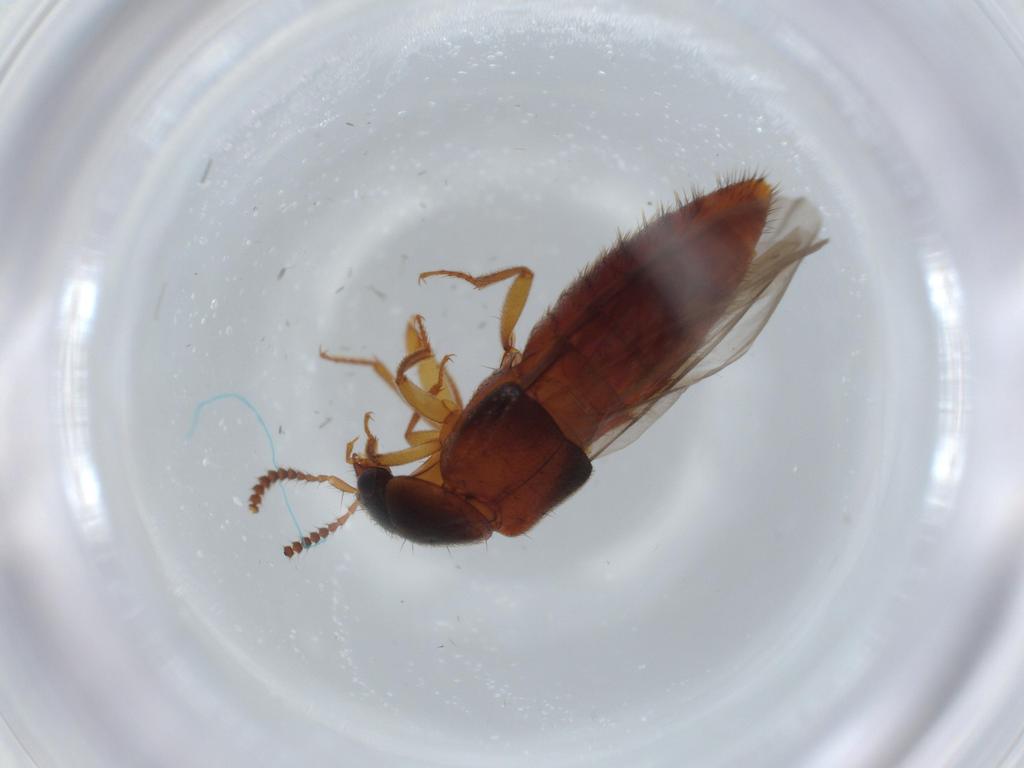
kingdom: Animalia
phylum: Arthropoda
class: Insecta
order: Coleoptera
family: Staphylinidae
